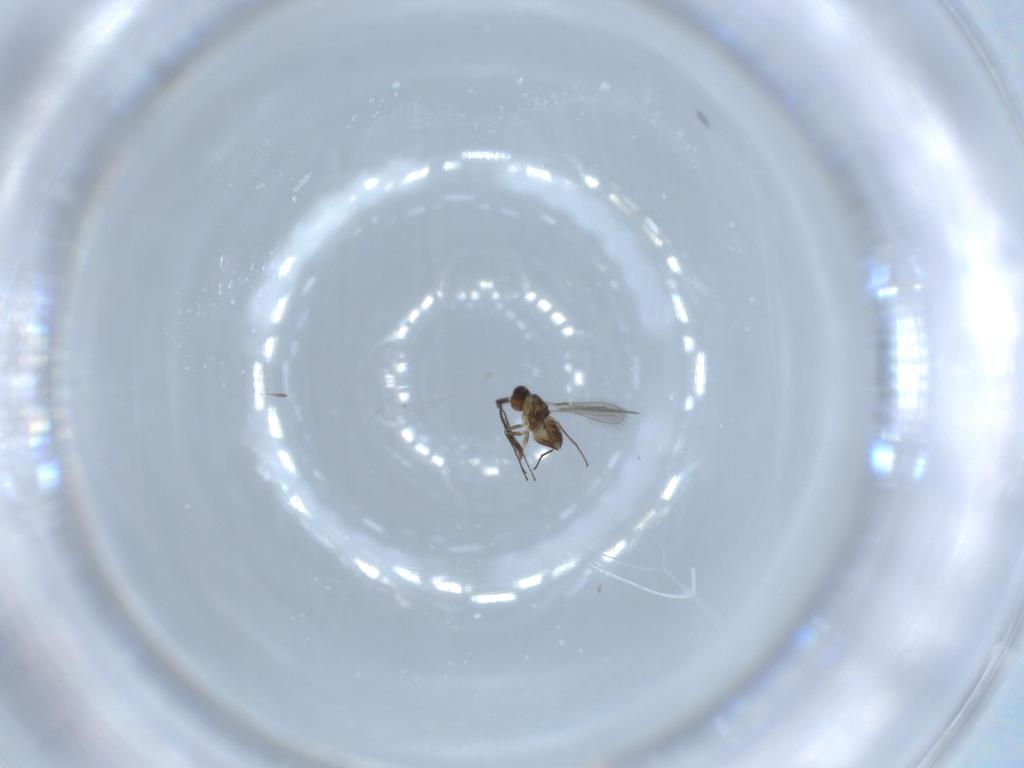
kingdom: Animalia
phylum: Arthropoda
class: Insecta
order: Hymenoptera
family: Mymaridae
